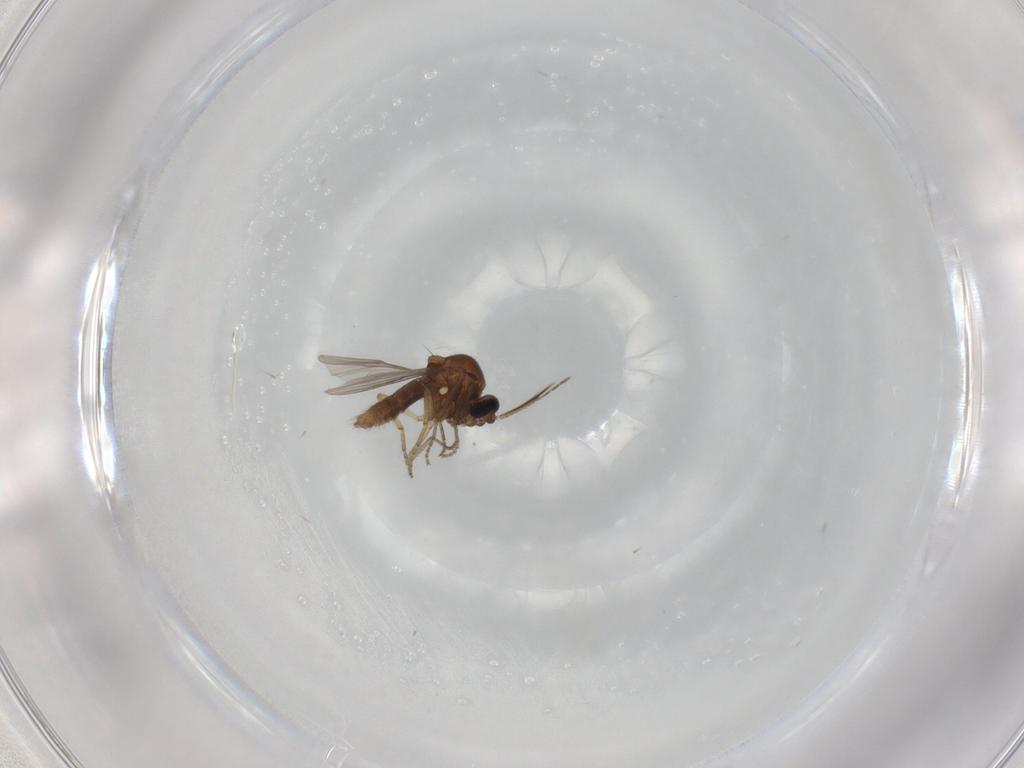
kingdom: Animalia
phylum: Arthropoda
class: Insecta
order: Diptera
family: Ceratopogonidae
